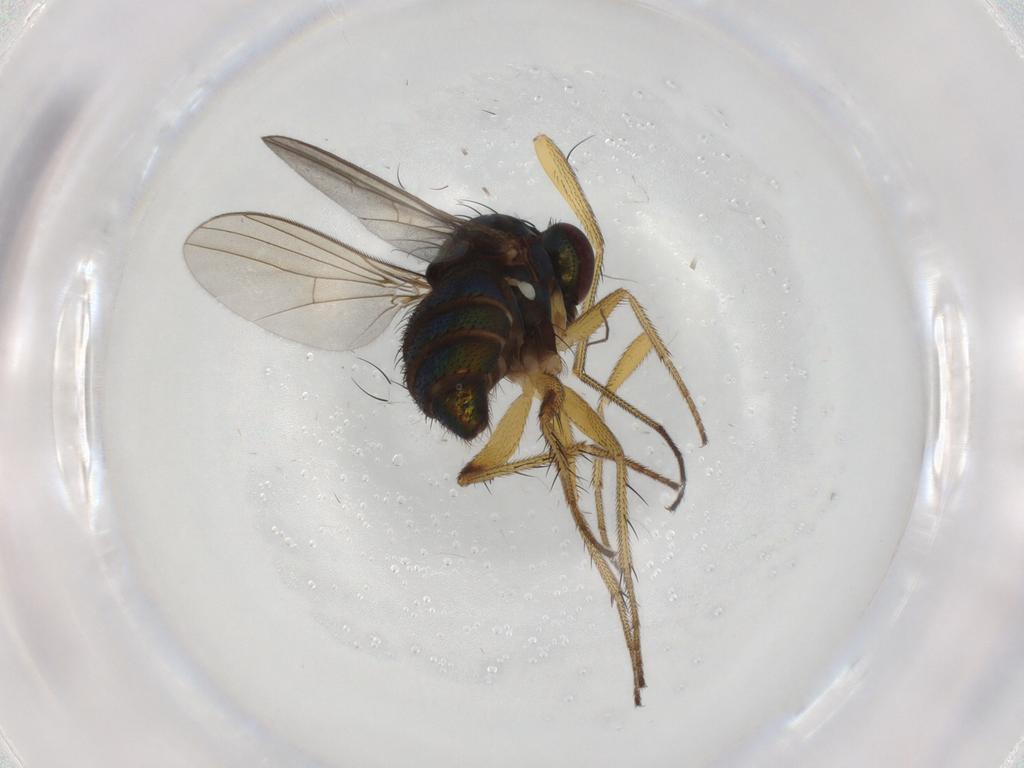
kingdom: Animalia
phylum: Arthropoda
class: Insecta
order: Diptera
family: Dolichopodidae
